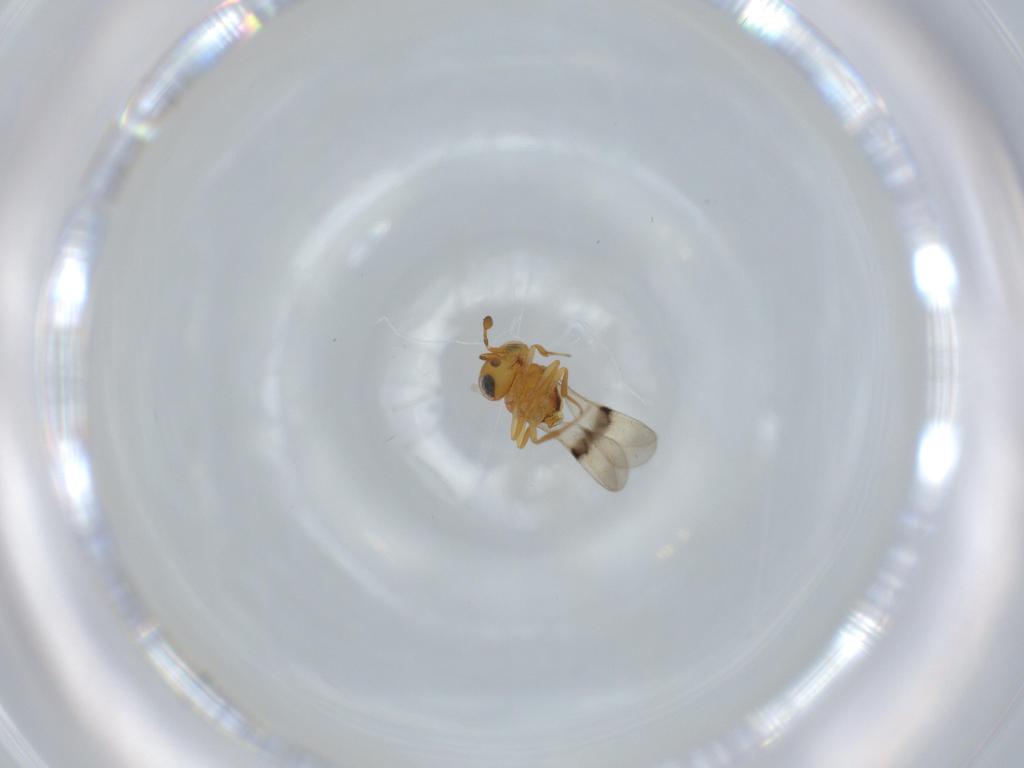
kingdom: Animalia
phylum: Arthropoda
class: Insecta
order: Hymenoptera
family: Scelionidae
